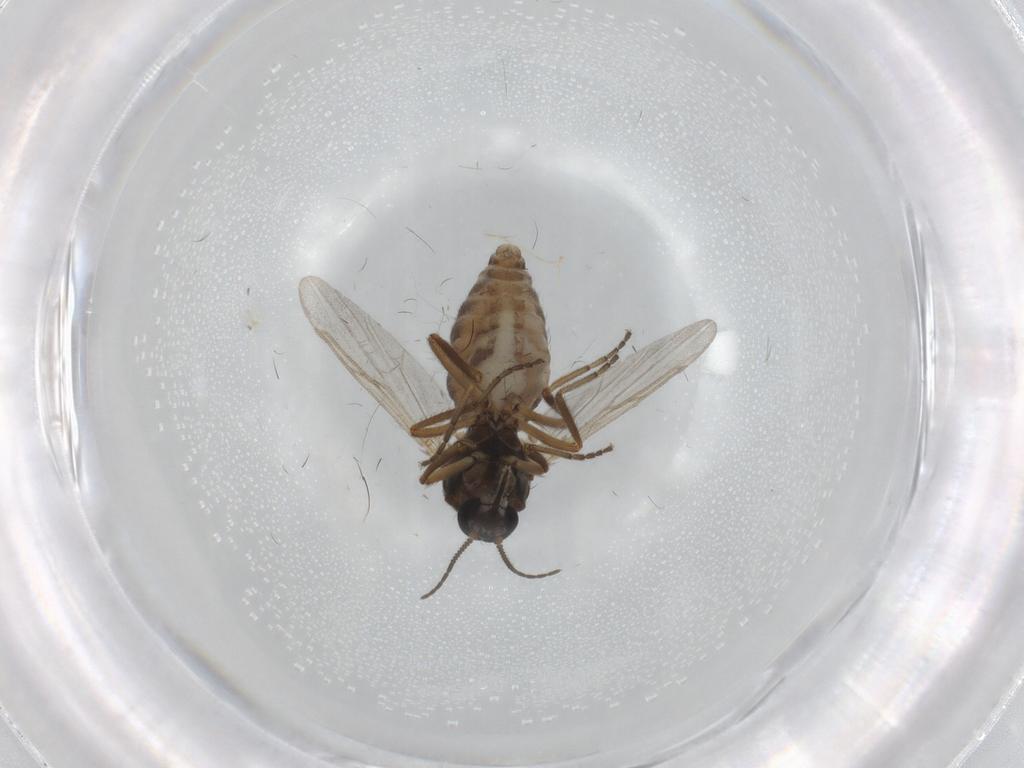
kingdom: Animalia
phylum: Arthropoda
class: Insecta
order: Diptera
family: Ceratopogonidae
